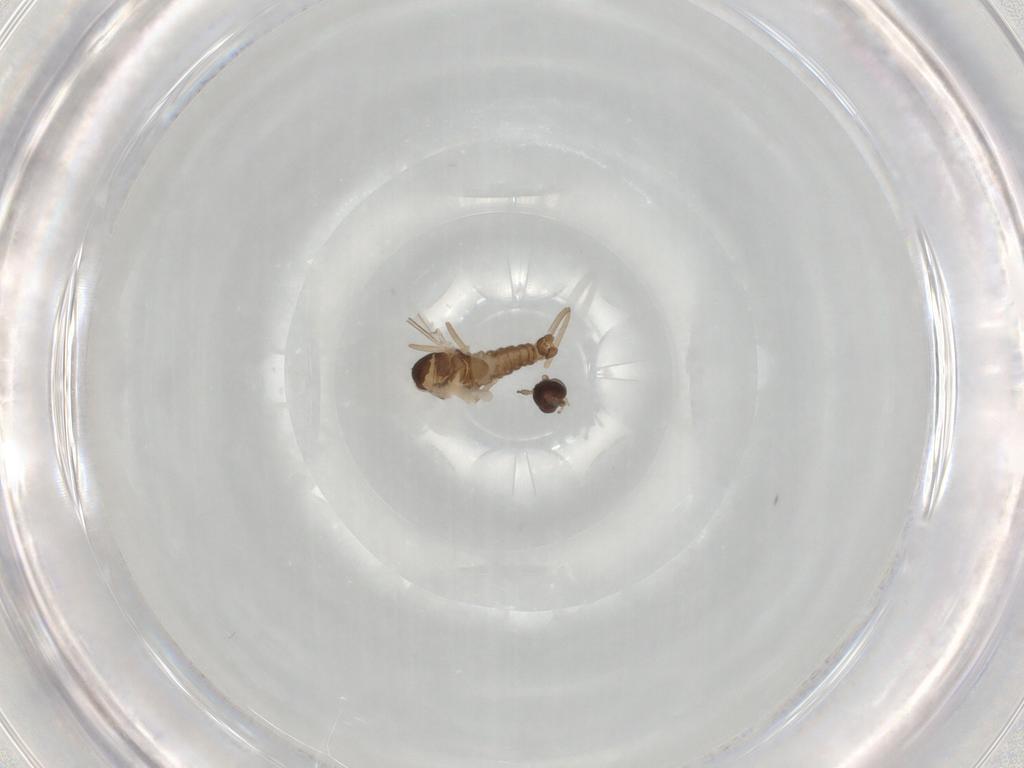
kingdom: Animalia
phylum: Arthropoda
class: Insecta
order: Diptera
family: Cecidomyiidae
